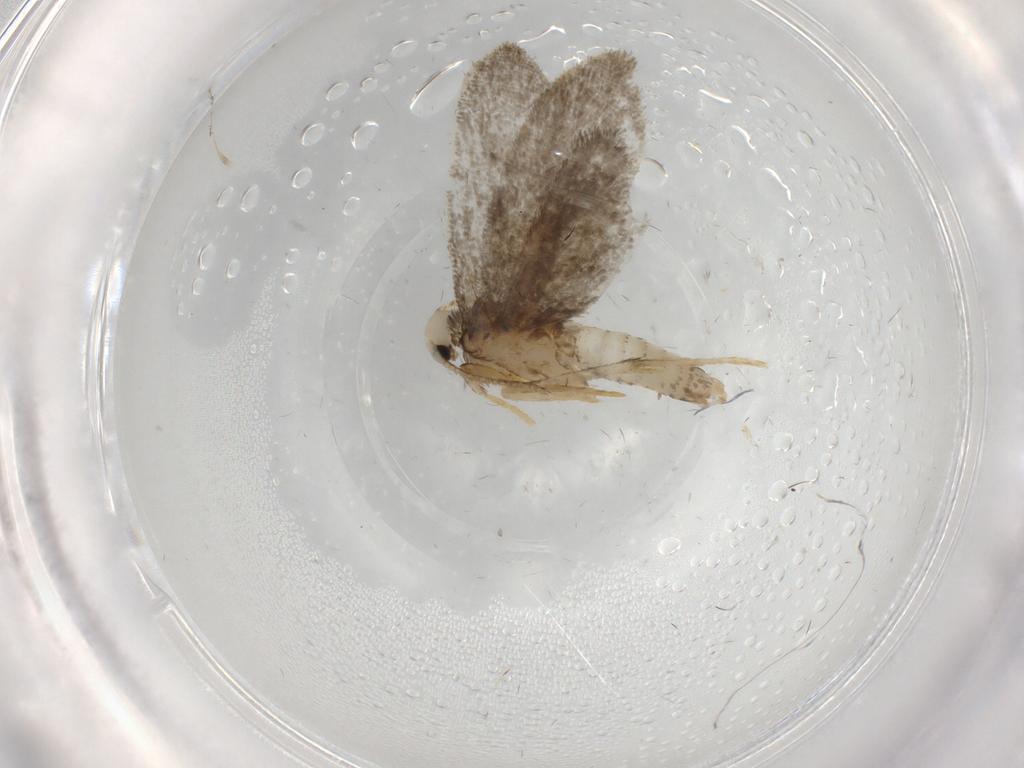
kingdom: Animalia
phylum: Arthropoda
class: Insecta
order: Lepidoptera
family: Psychidae
